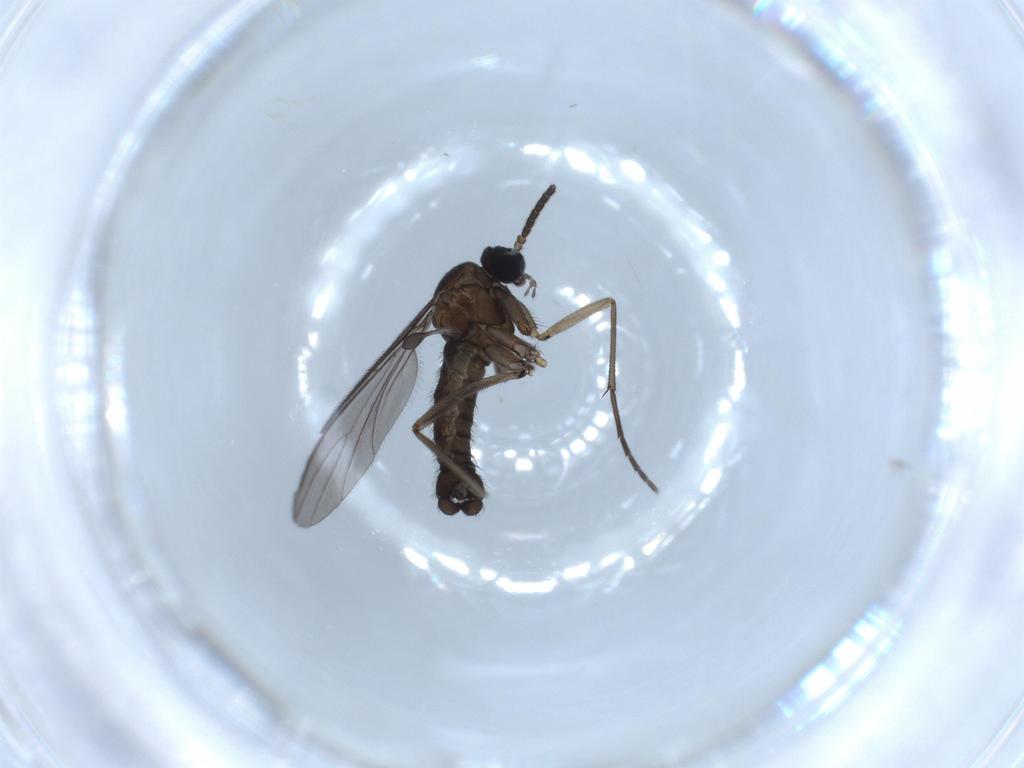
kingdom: Animalia
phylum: Arthropoda
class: Insecta
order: Diptera
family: Sciaridae
